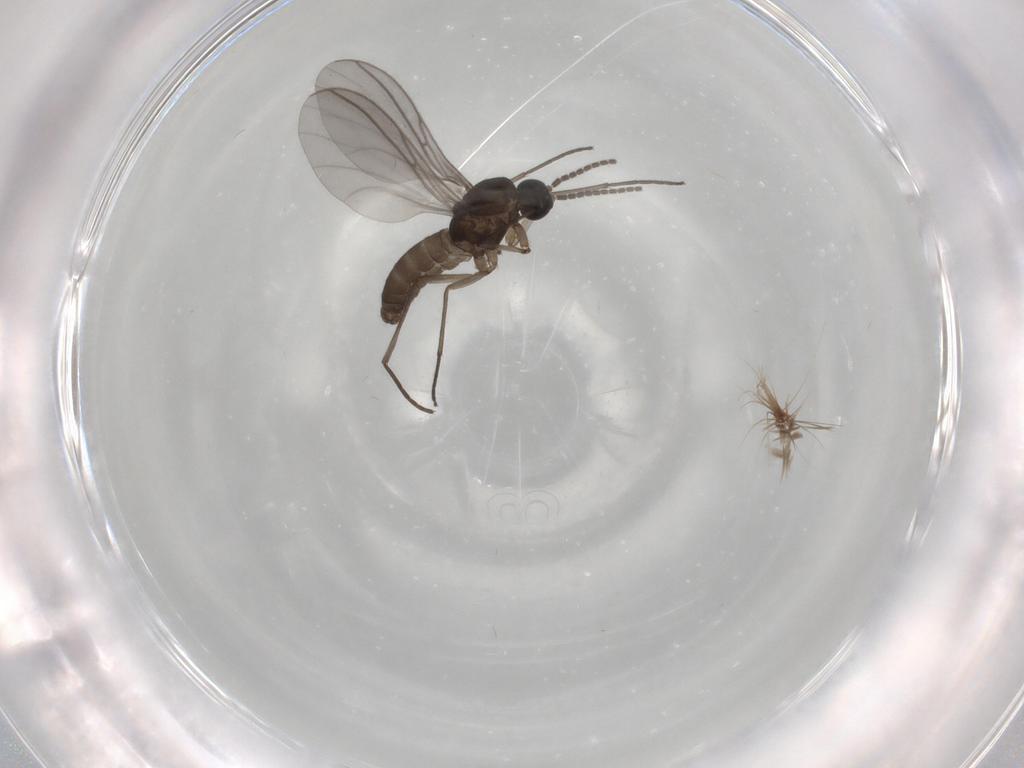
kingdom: Animalia
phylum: Arthropoda
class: Insecta
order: Diptera
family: Sciaridae
